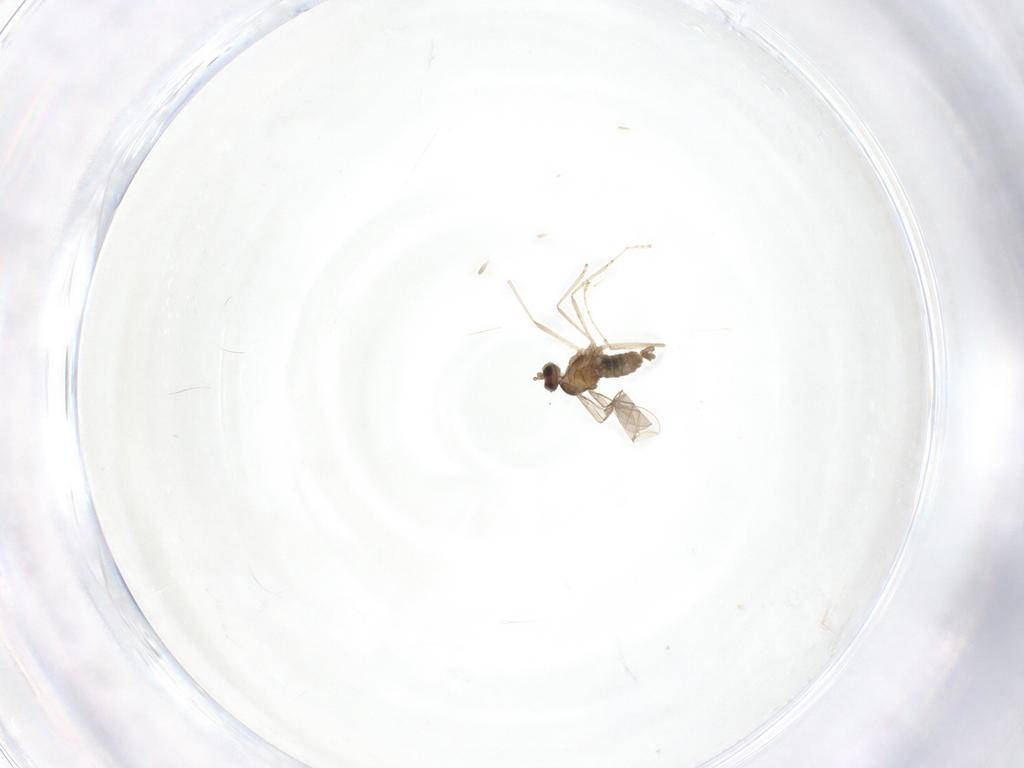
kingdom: Animalia
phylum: Arthropoda
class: Insecta
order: Diptera
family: Cecidomyiidae
